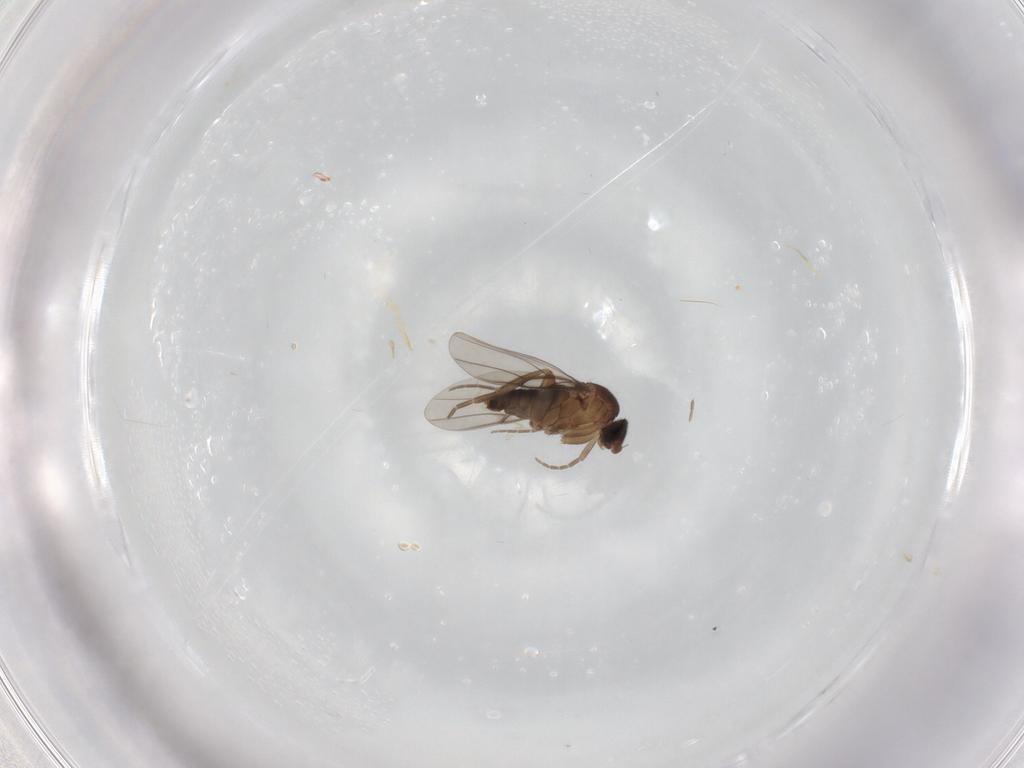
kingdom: Animalia
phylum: Arthropoda
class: Insecta
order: Diptera
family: Phoridae
